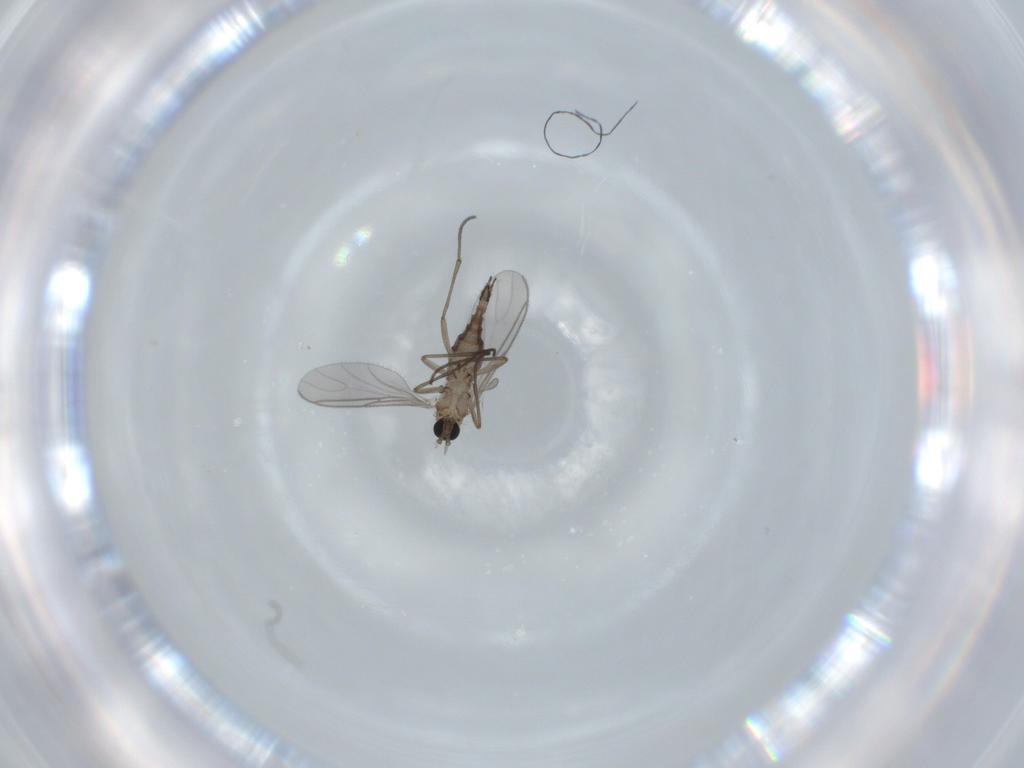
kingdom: Animalia
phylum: Arthropoda
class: Insecta
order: Diptera
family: Sciaridae
